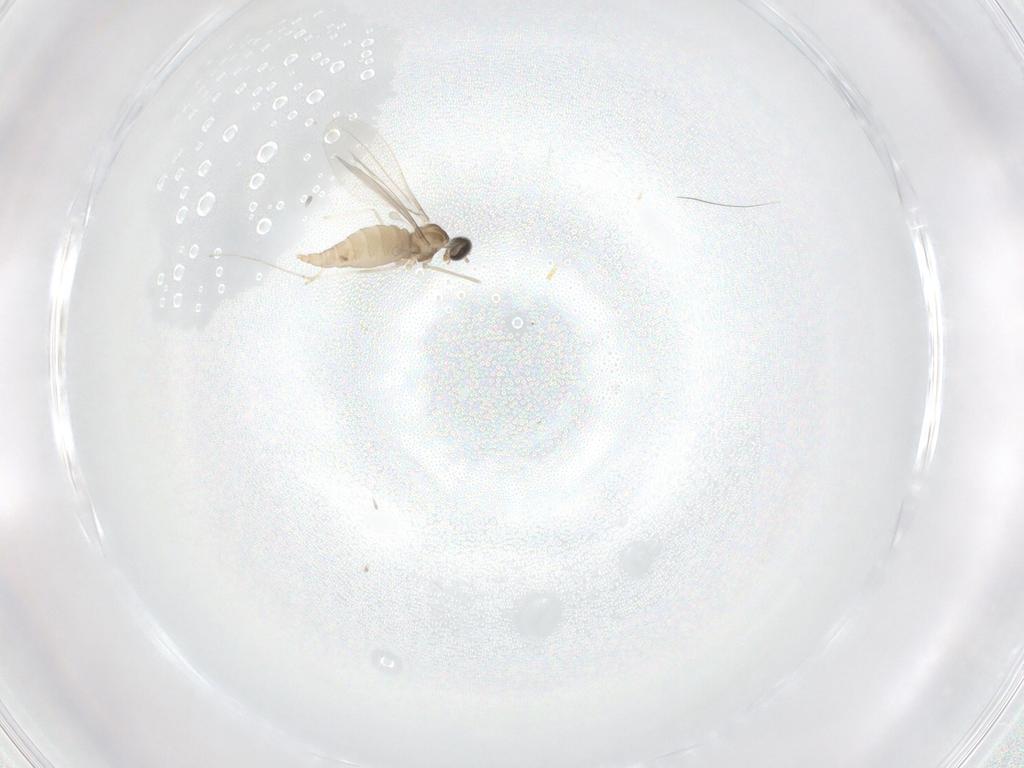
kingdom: Animalia
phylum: Arthropoda
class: Insecta
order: Diptera
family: Cecidomyiidae
